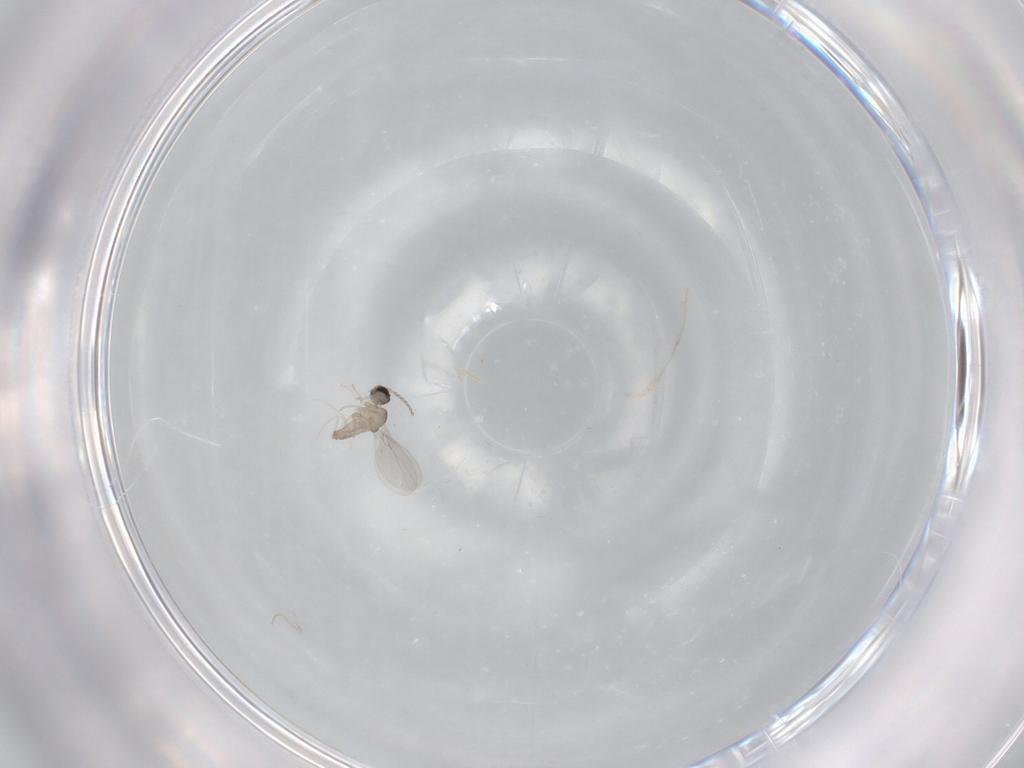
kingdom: Animalia
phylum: Arthropoda
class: Insecta
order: Diptera
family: Cecidomyiidae
